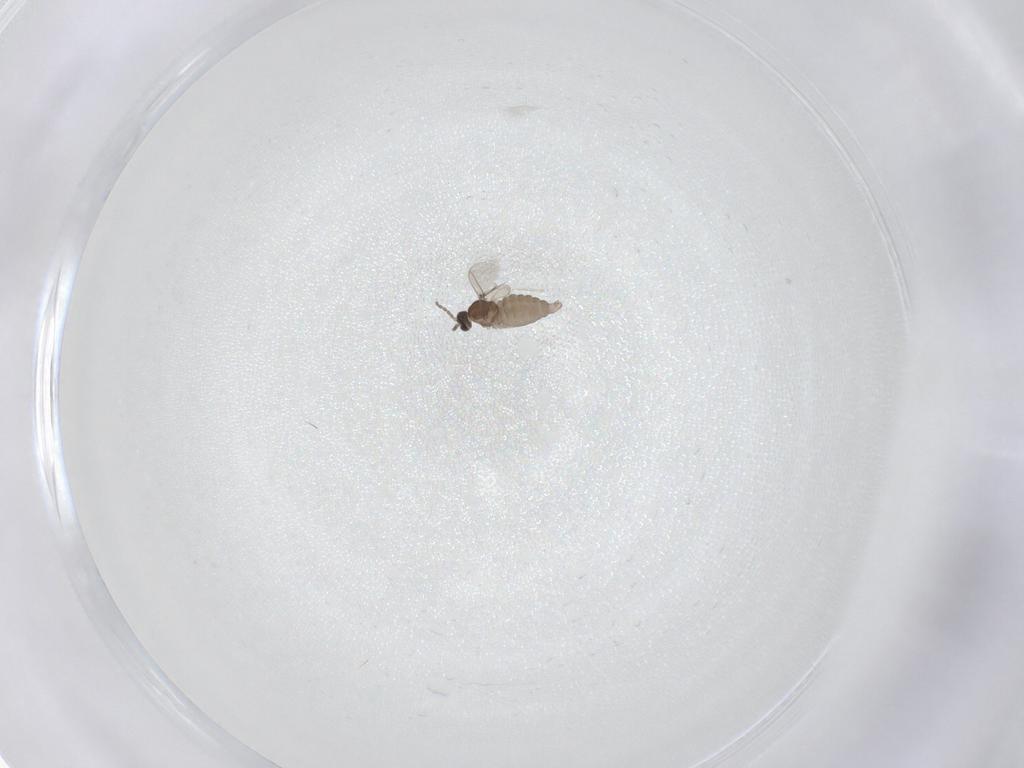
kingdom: Animalia
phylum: Arthropoda
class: Insecta
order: Diptera
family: Cecidomyiidae
